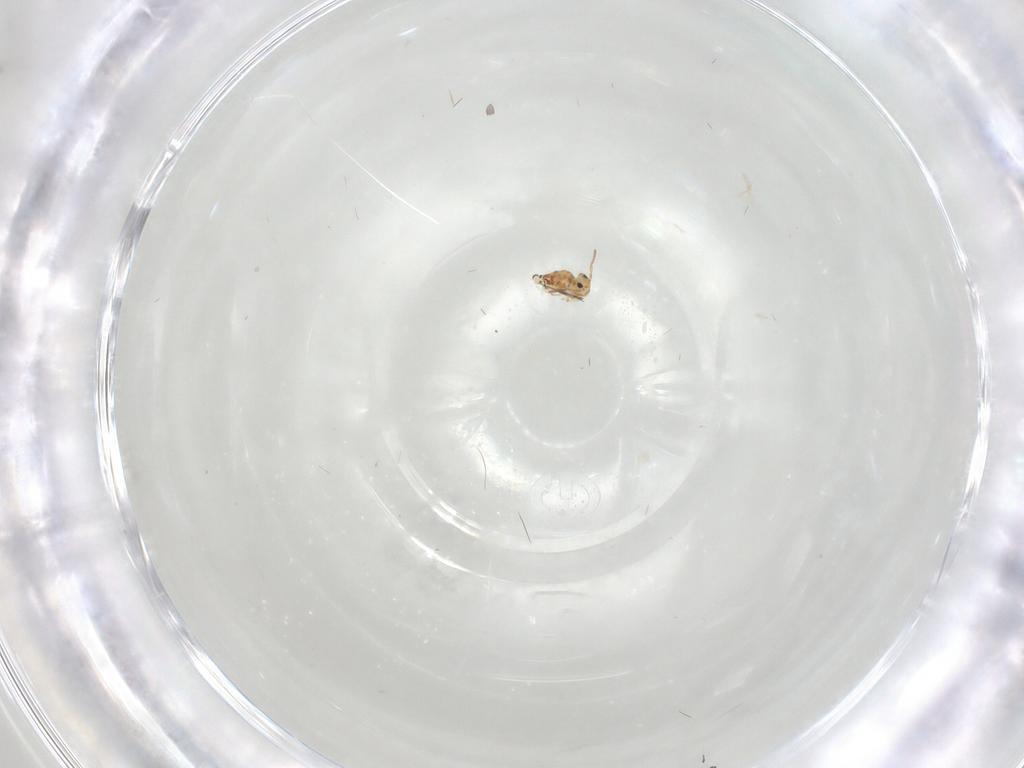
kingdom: Animalia
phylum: Arthropoda
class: Collembola
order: Symphypleona
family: Bourletiellidae
